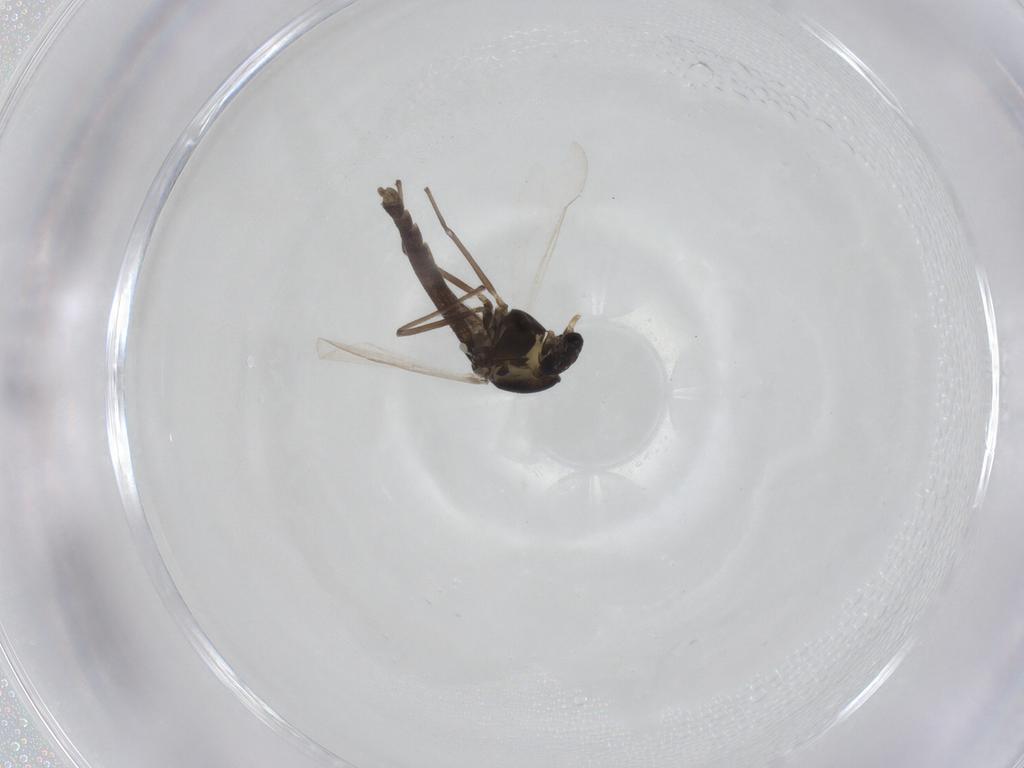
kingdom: Animalia
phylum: Arthropoda
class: Insecta
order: Diptera
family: Chironomidae
